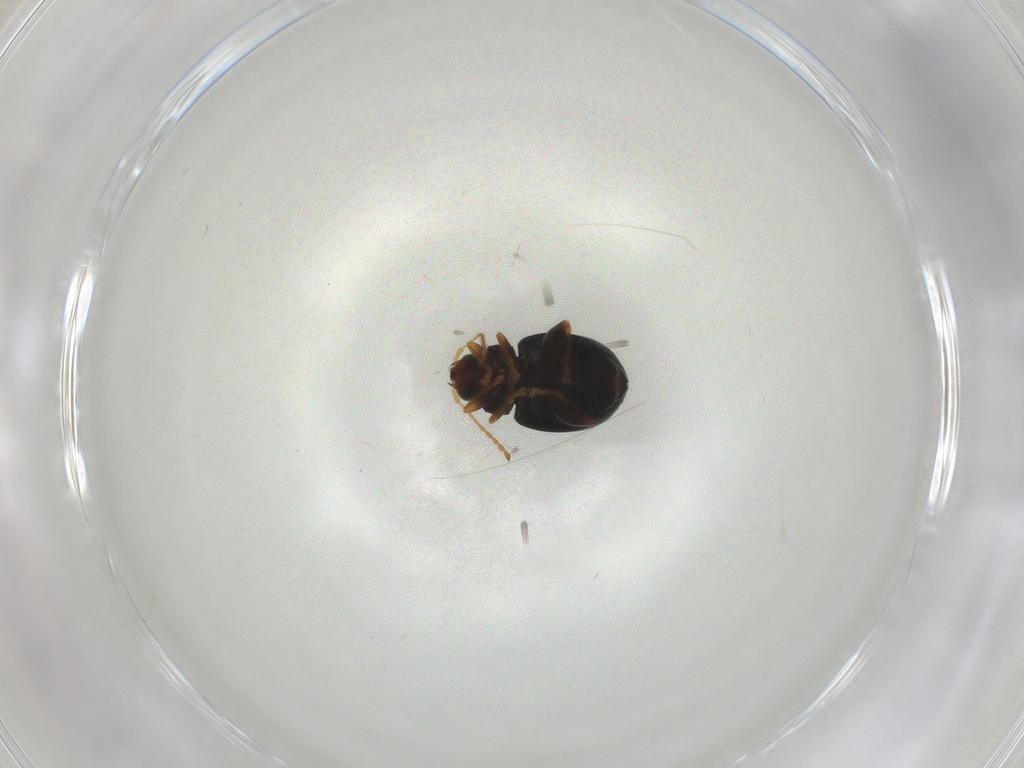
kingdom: Animalia
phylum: Arthropoda
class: Insecta
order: Coleoptera
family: Chrysomelidae
